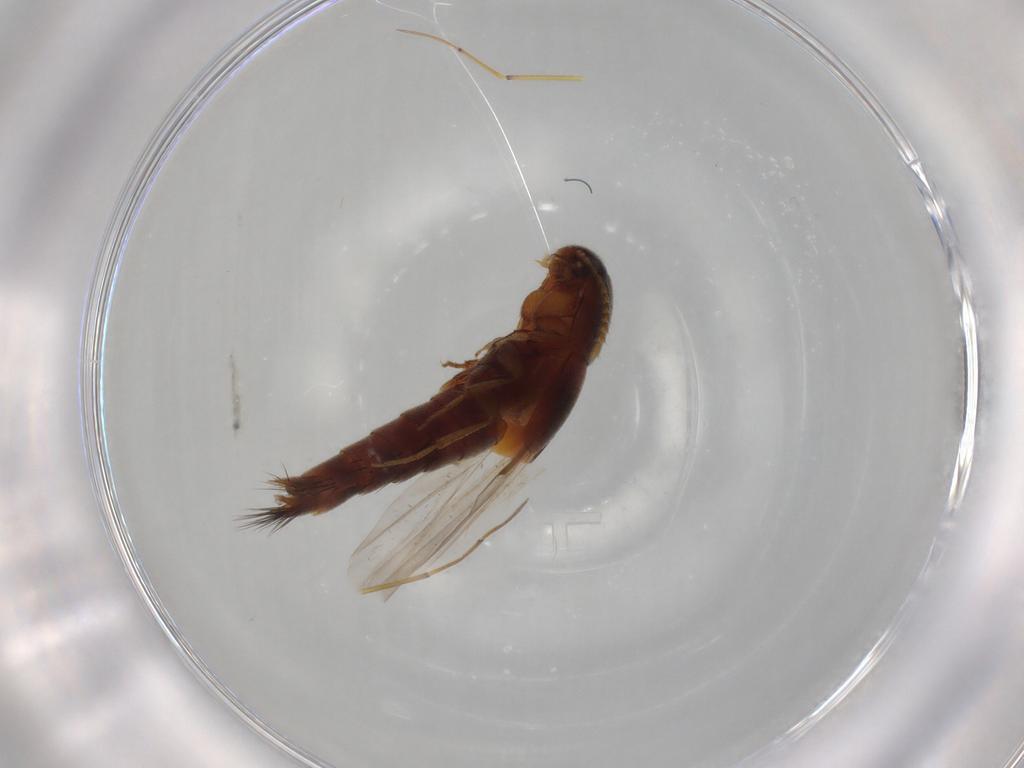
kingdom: Animalia
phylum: Arthropoda
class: Insecta
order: Coleoptera
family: Staphylinidae
